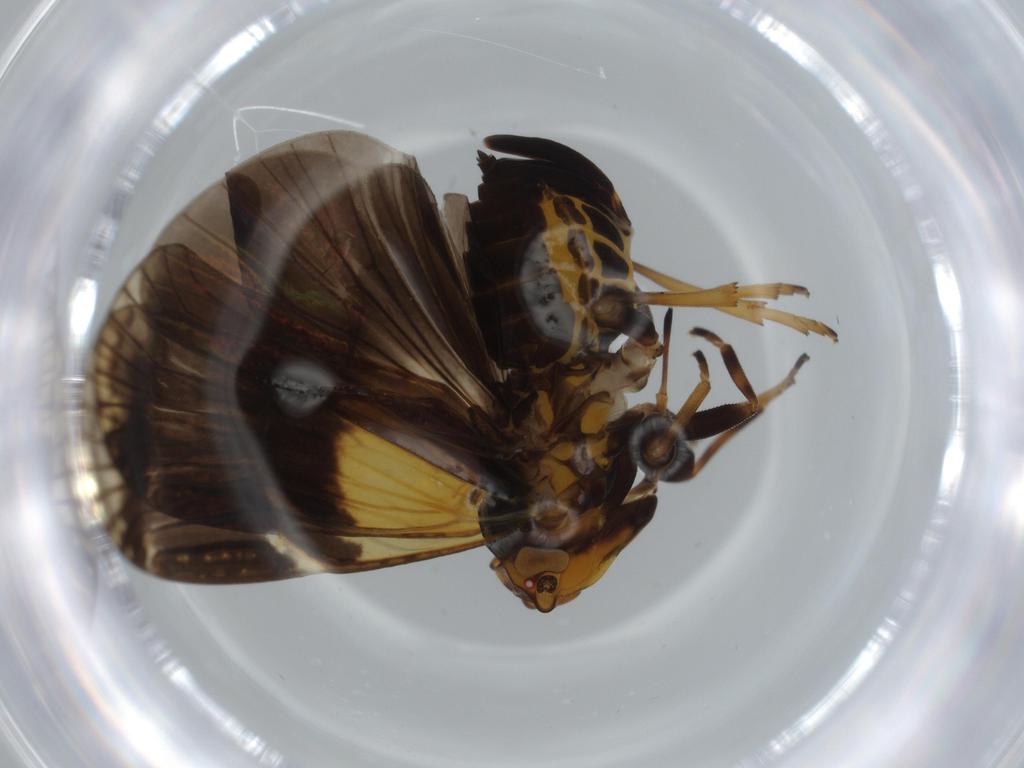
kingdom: Animalia
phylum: Arthropoda
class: Insecta
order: Hemiptera
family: Cixiidae
